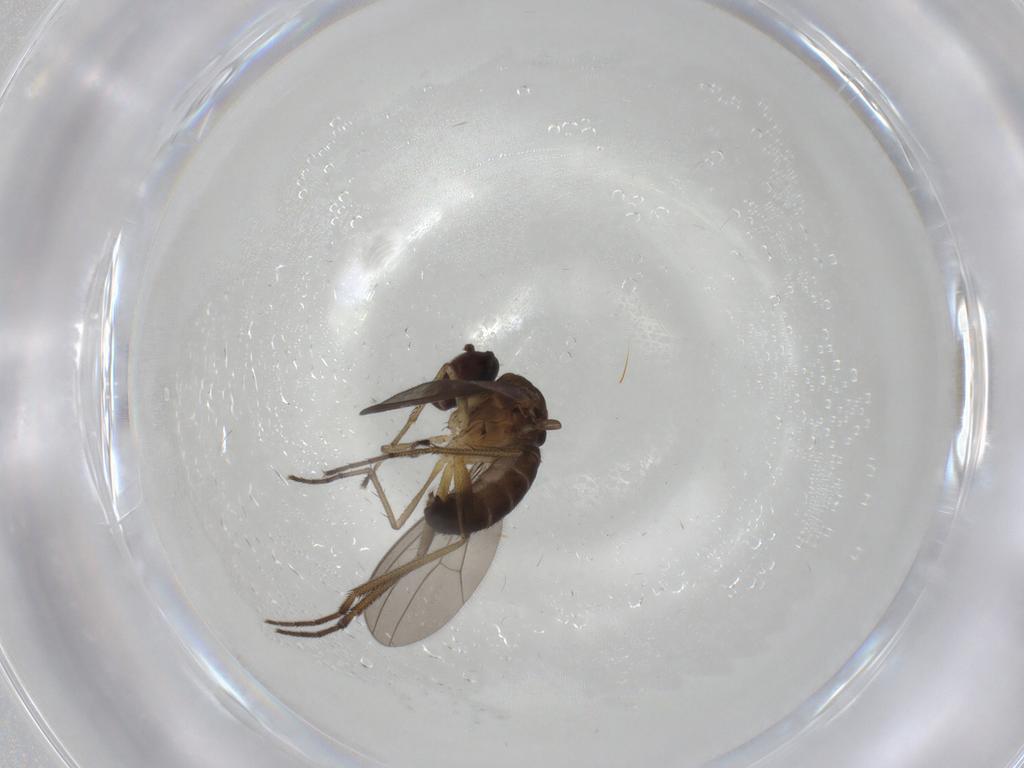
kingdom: Animalia
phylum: Arthropoda
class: Insecta
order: Diptera
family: Dolichopodidae
